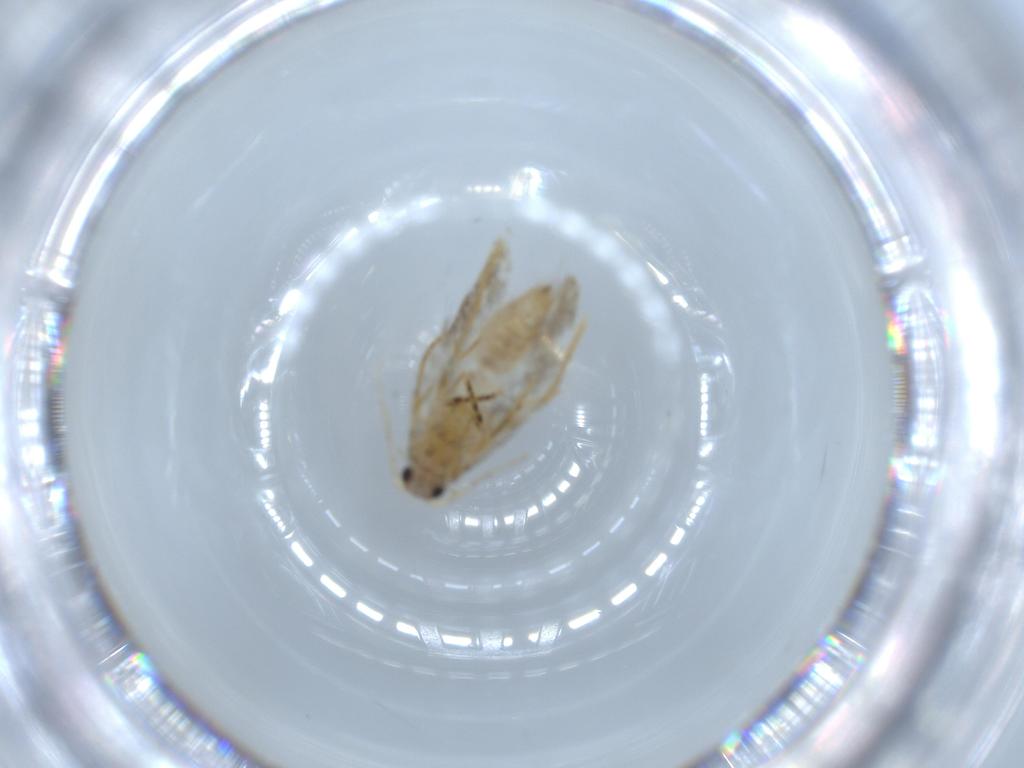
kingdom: Animalia
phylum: Arthropoda
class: Insecta
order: Lepidoptera
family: Tineidae
